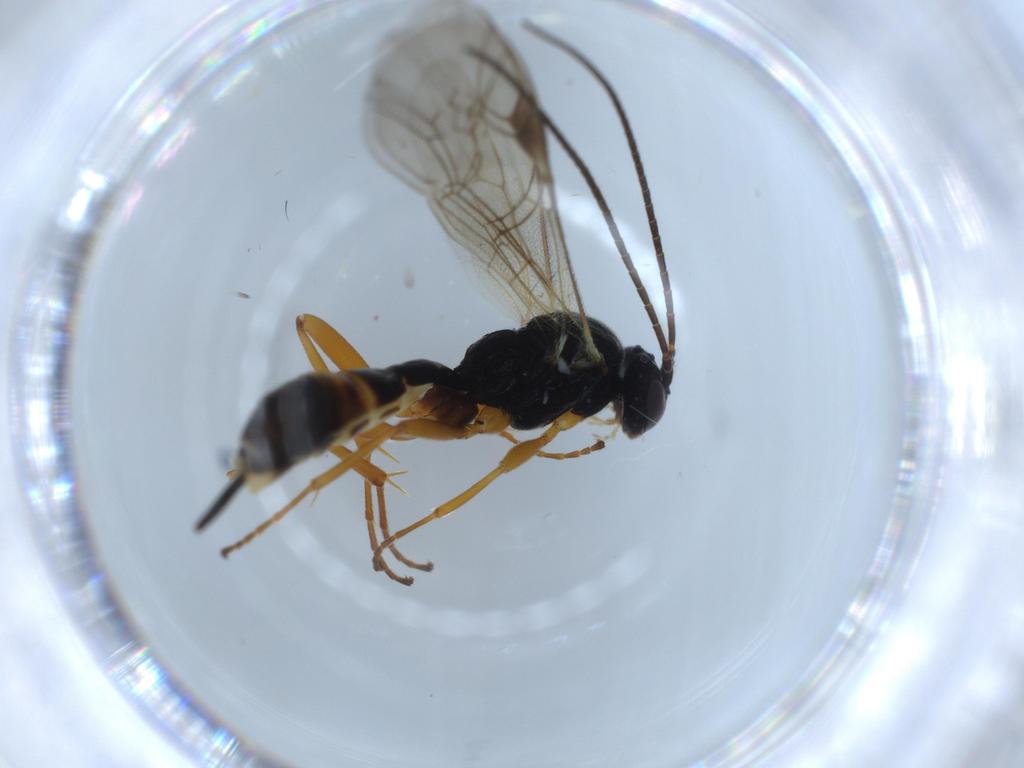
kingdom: Animalia
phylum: Arthropoda
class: Insecta
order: Hymenoptera
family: Ichneumonidae
